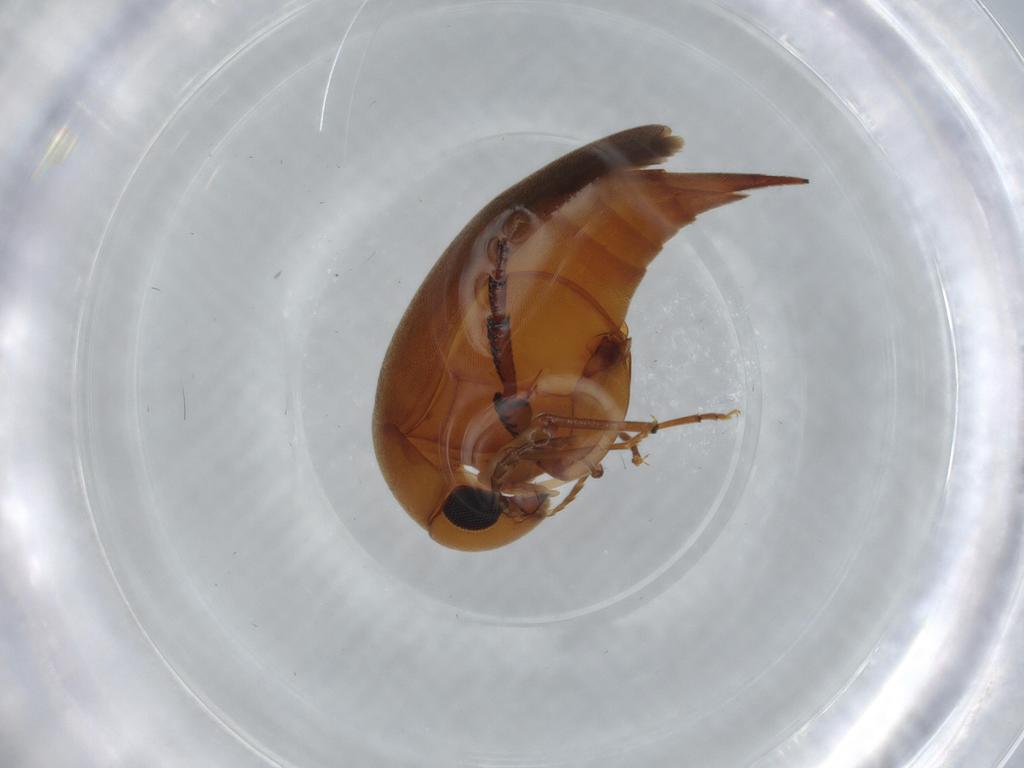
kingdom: Animalia
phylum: Arthropoda
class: Insecta
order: Coleoptera
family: Mordellidae
